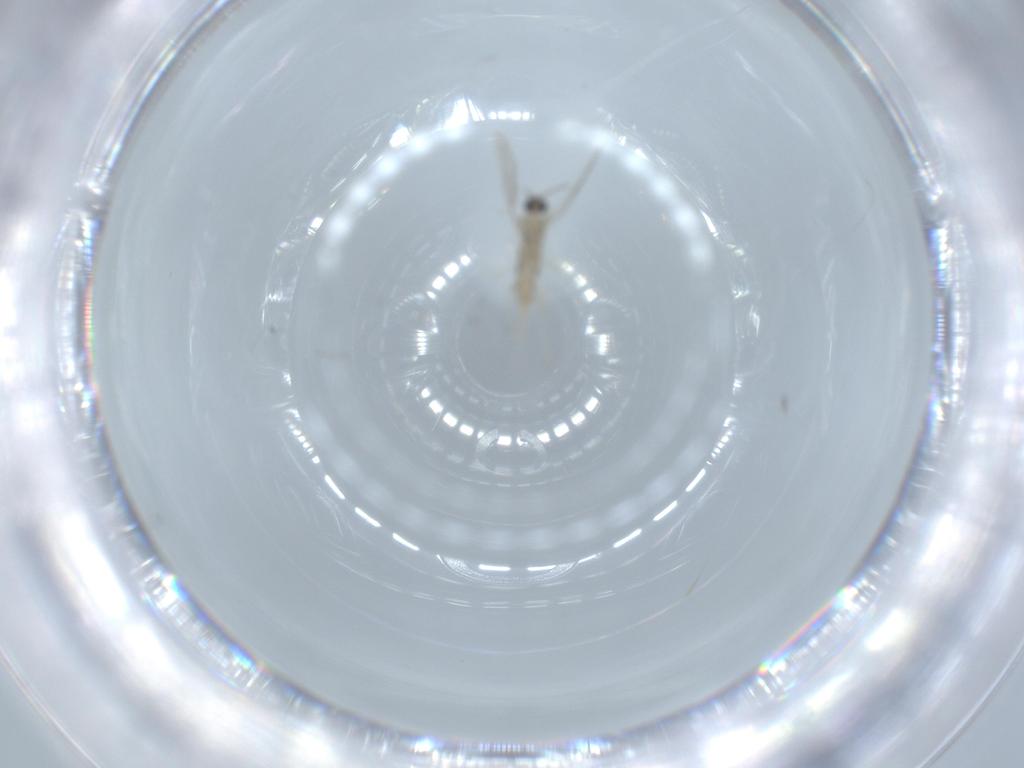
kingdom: Animalia
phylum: Arthropoda
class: Insecta
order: Diptera
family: Cecidomyiidae
